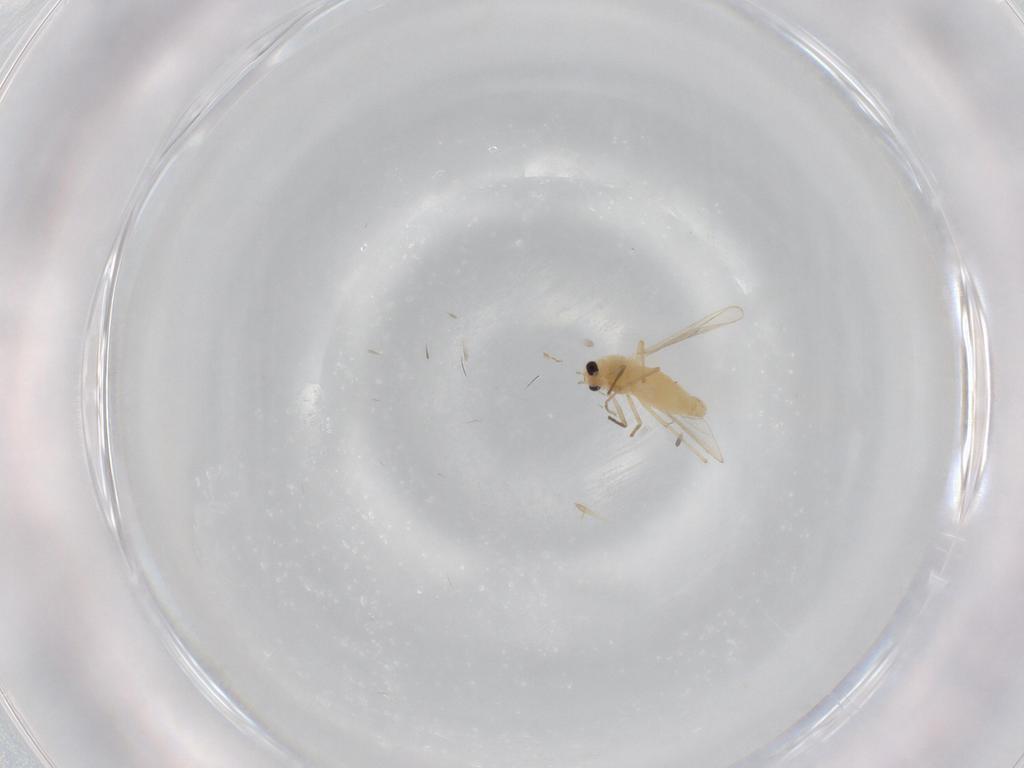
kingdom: Animalia
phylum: Arthropoda
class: Insecta
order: Diptera
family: Chironomidae
